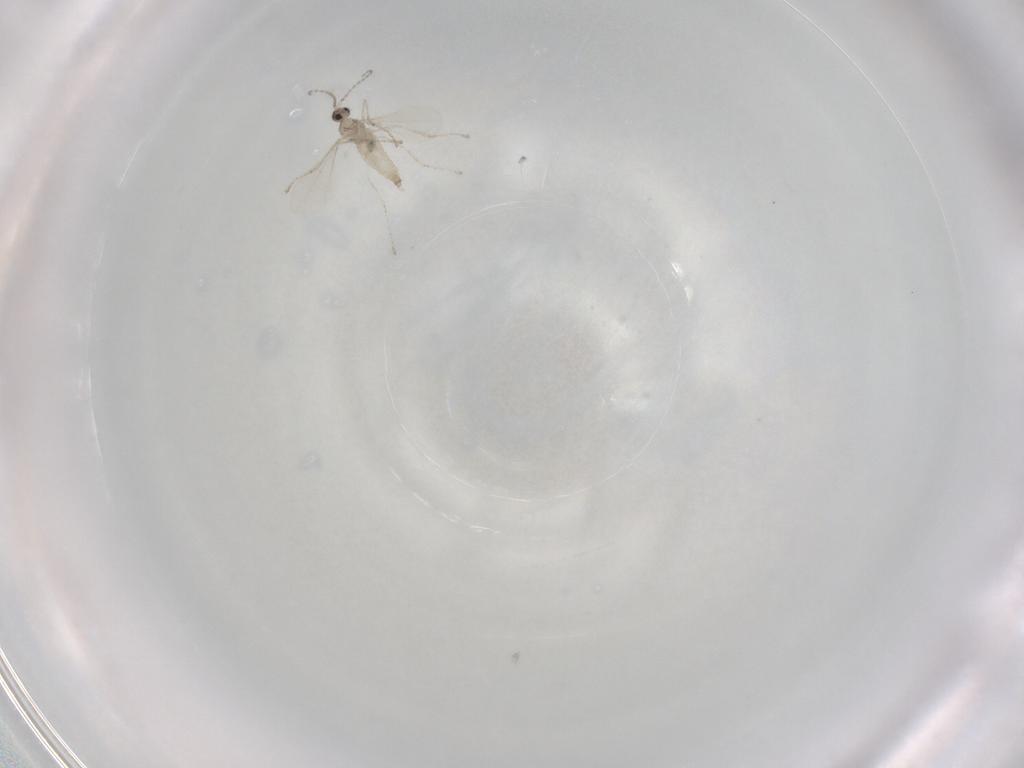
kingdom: Animalia
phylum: Arthropoda
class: Insecta
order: Diptera
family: Cecidomyiidae
